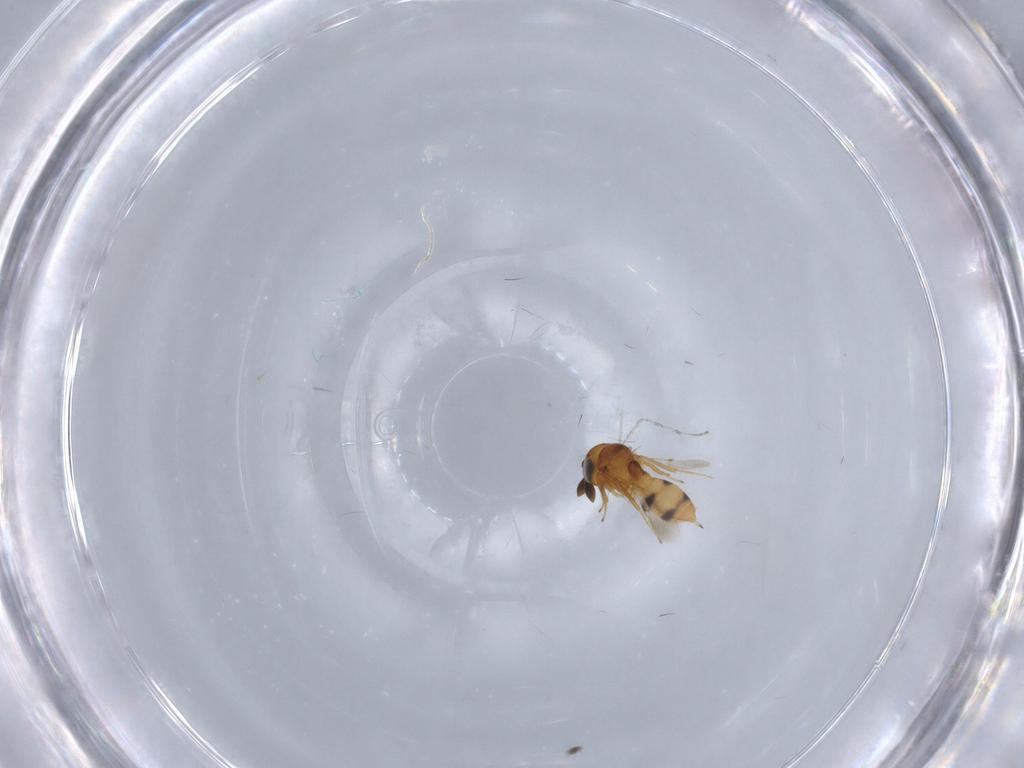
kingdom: Animalia
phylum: Arthropoda
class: Insecta
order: Hymenoptera
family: Scelionidae
